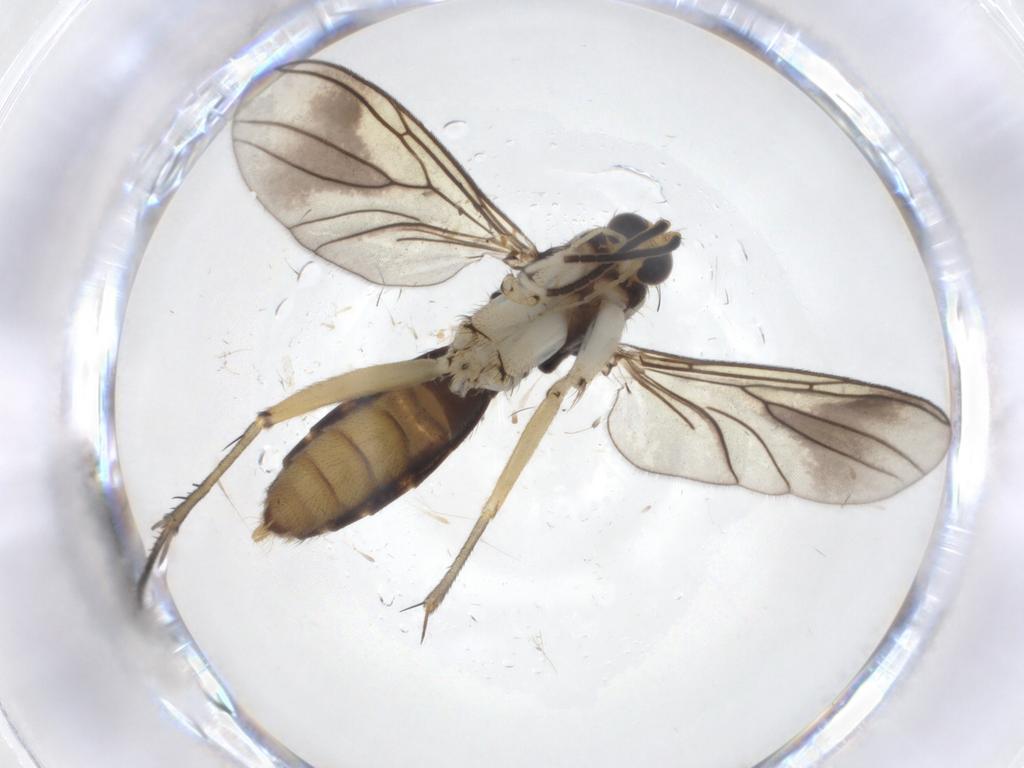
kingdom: Animalia
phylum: Arthropoda
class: Insecta
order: Diptera
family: Mycetophilidae
